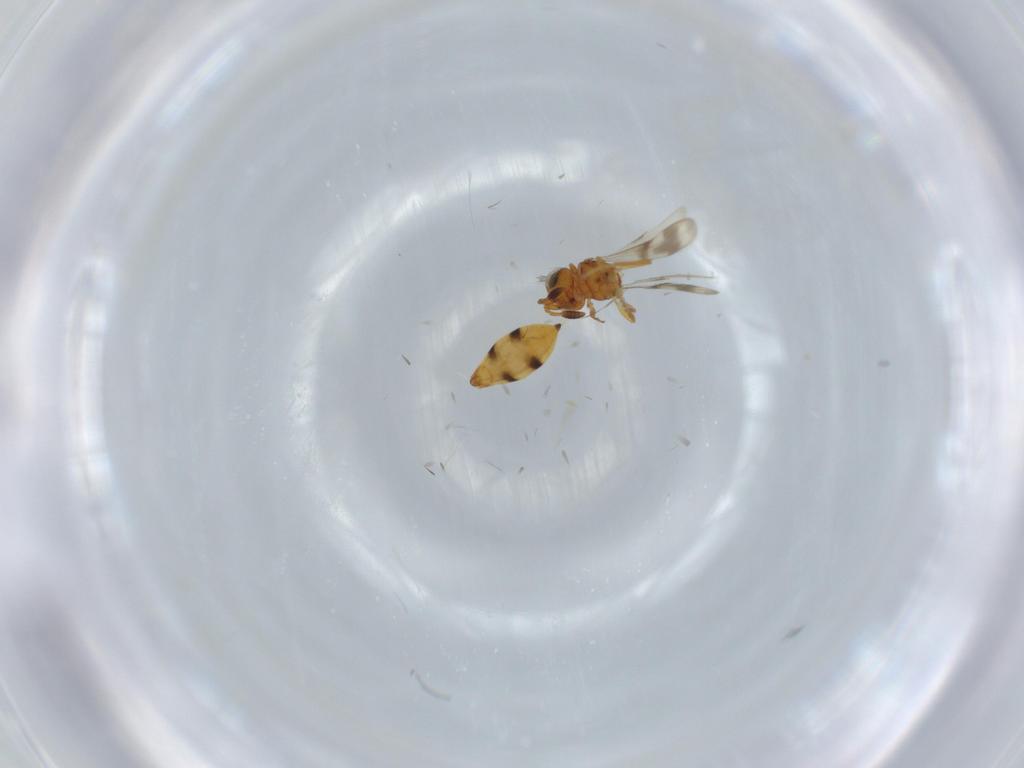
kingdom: Animalia
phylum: Arthropoda
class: Insecta
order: Hymenoptera
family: Scelionidae
